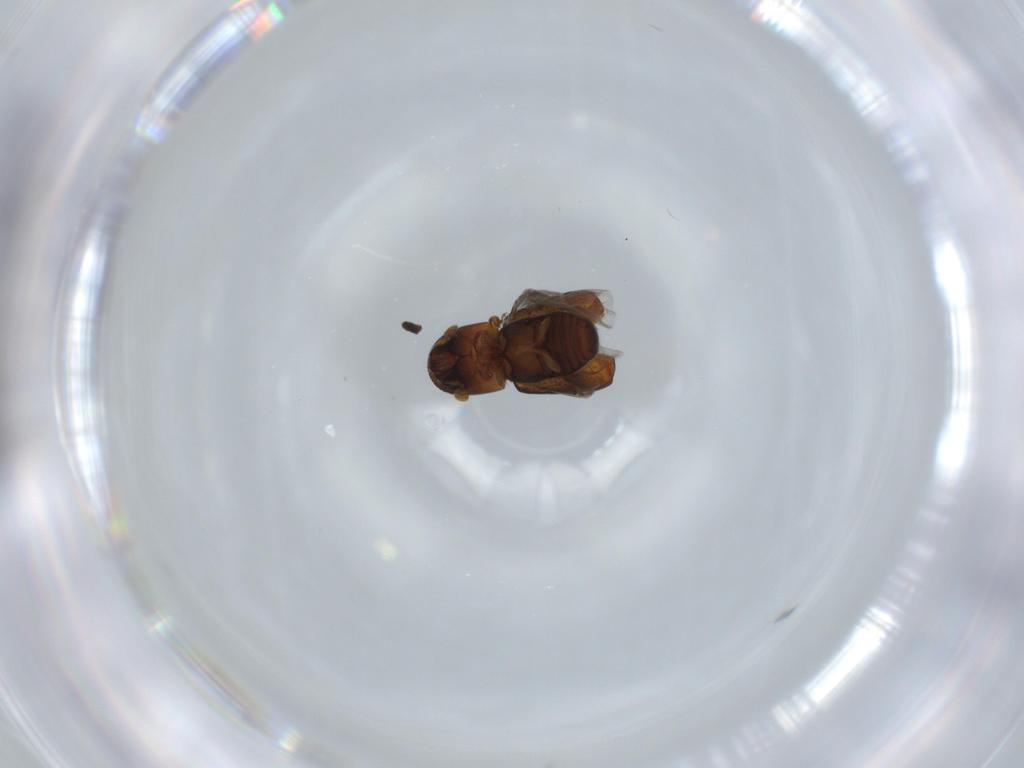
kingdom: Animalia
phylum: Arthropoda
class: Insecta
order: Coleoptera
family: Curculionidae
